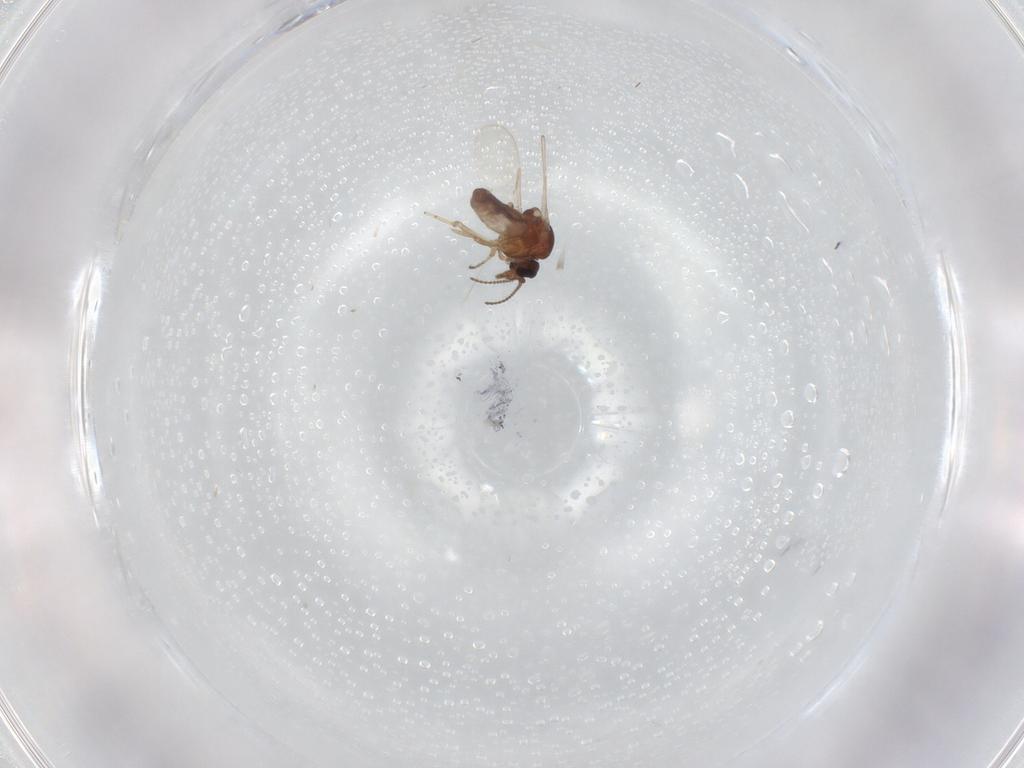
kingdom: Animalia
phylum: Arthropoda
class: Insecta
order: Diptera
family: Ceratopogonidae
